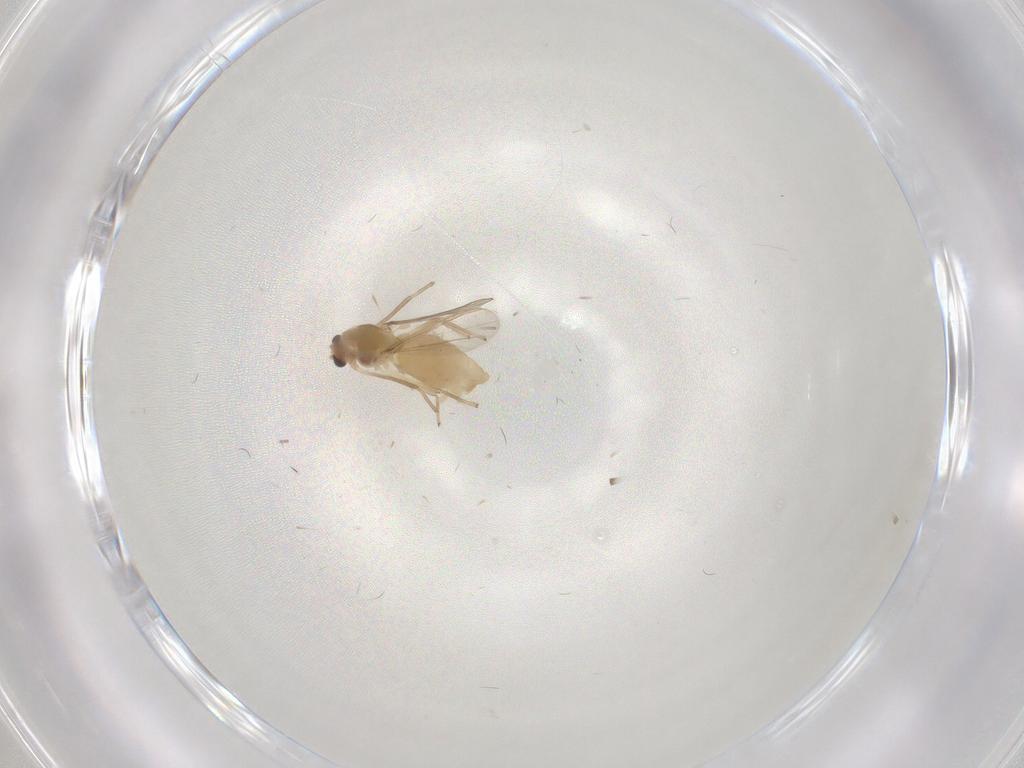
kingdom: Animalia
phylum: Arthropoda
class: Insecta
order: Diptera
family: Chironomidae
